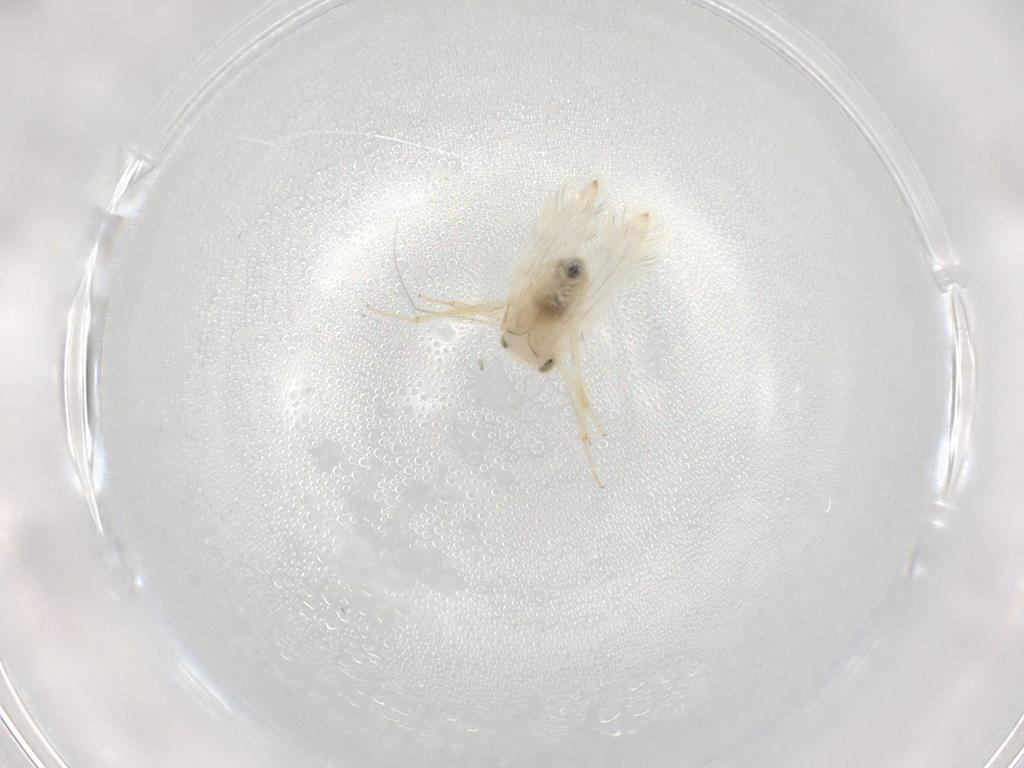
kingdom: Animalia
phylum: Arthropoda
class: Insecta
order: Psocodea
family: Lepidopsocidae
